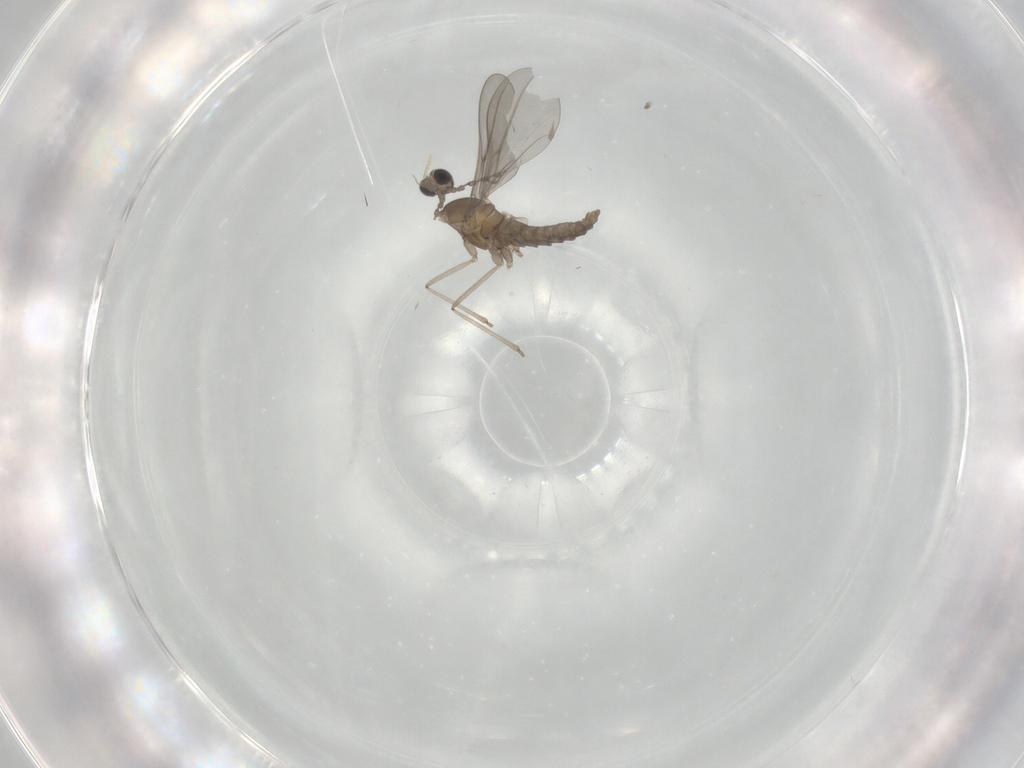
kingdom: Animalia
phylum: Arthropoda
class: Insecta
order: Diptera
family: Cecidomyiidae
